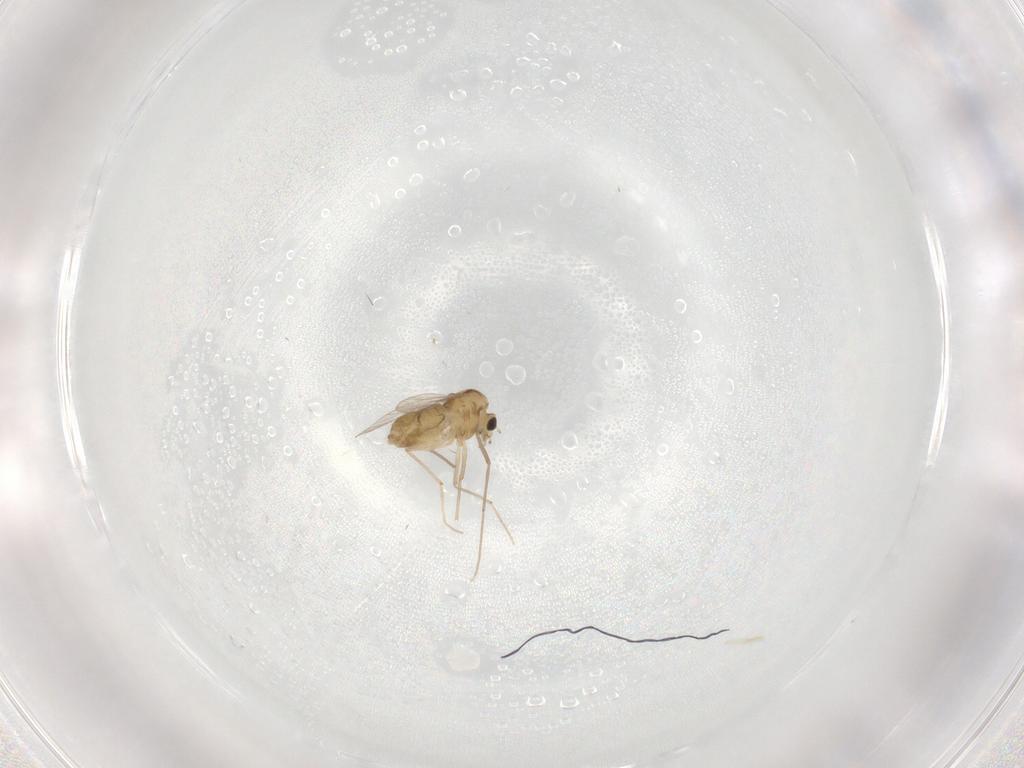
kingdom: Animalia
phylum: Arthropoda
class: Insecta
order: Diptera
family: Chironomidae
